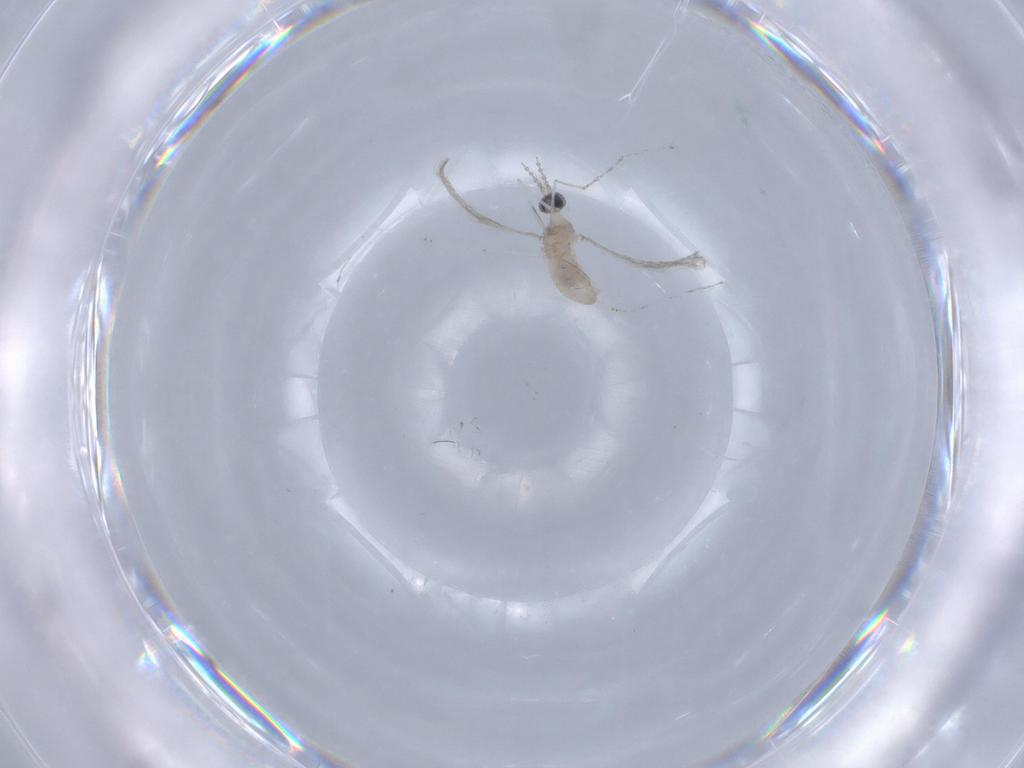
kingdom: Animalia
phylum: Arthropoda
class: Insecta
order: Diptera
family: Cecidomyiidae
